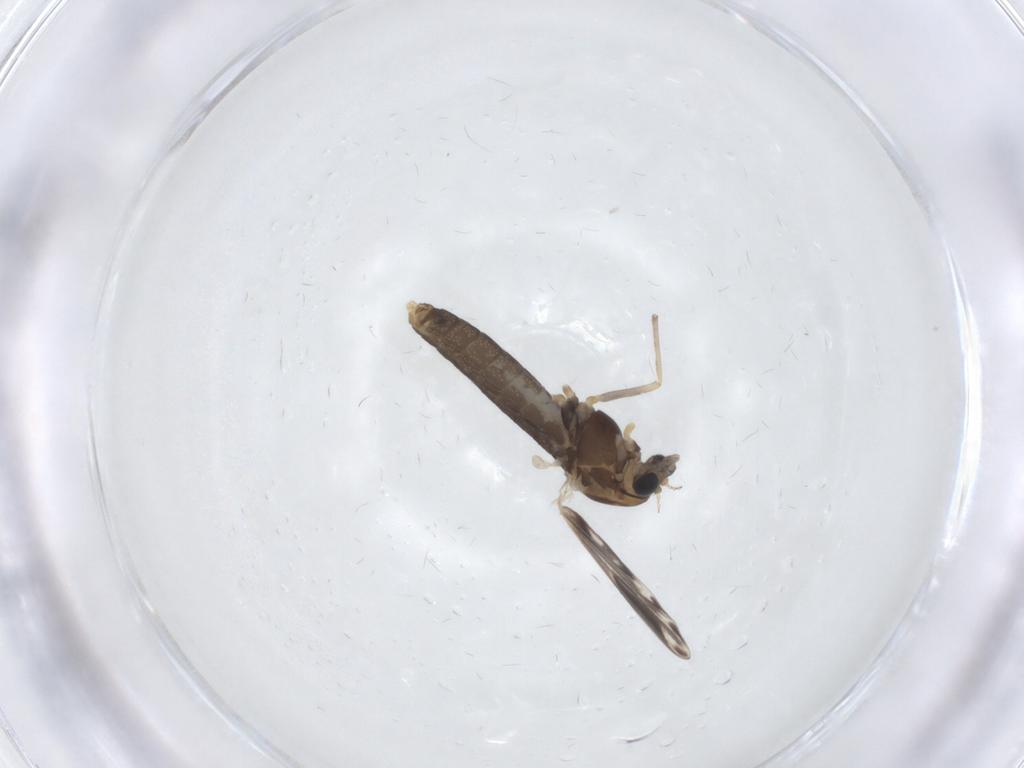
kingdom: Animalia
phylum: Arthropoda
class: Insecta
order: Diptera
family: Chironomidae
